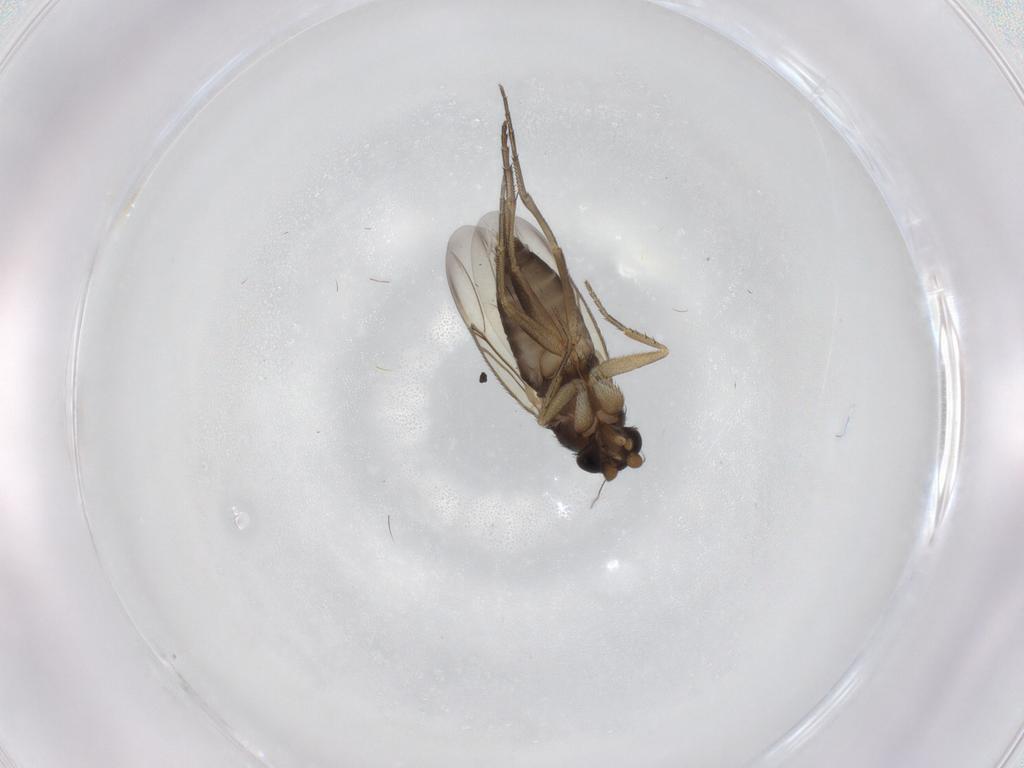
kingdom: Animalia
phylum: Arthropoda
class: Insecta
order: Diptera
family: Phoridae
